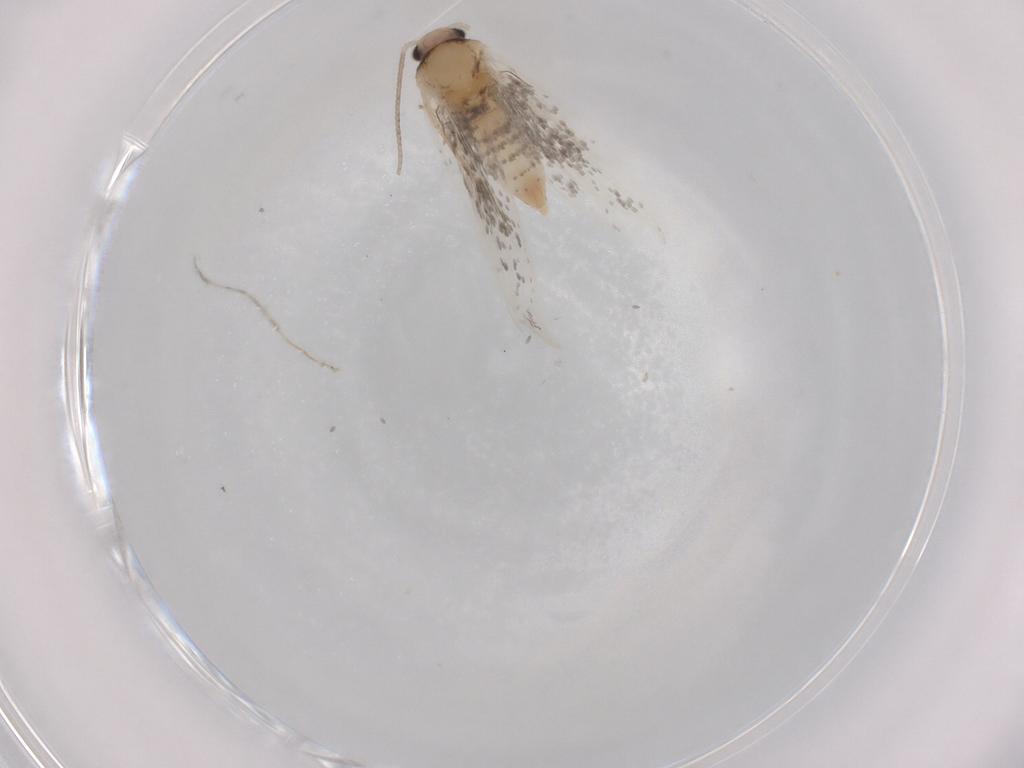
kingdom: Animalia
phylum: Arthropoda
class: Insecta
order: Lepidoptera
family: Tineidae
